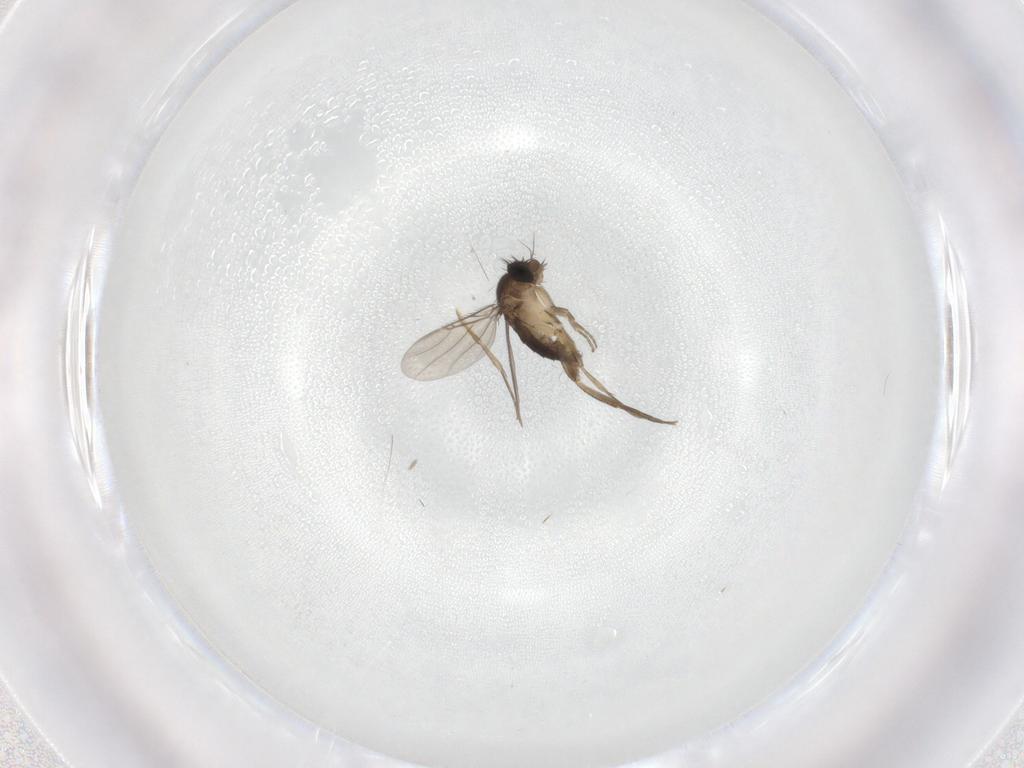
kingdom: Animalia
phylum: Arthropoda
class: Insecta
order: Diptera
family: Phoridae
